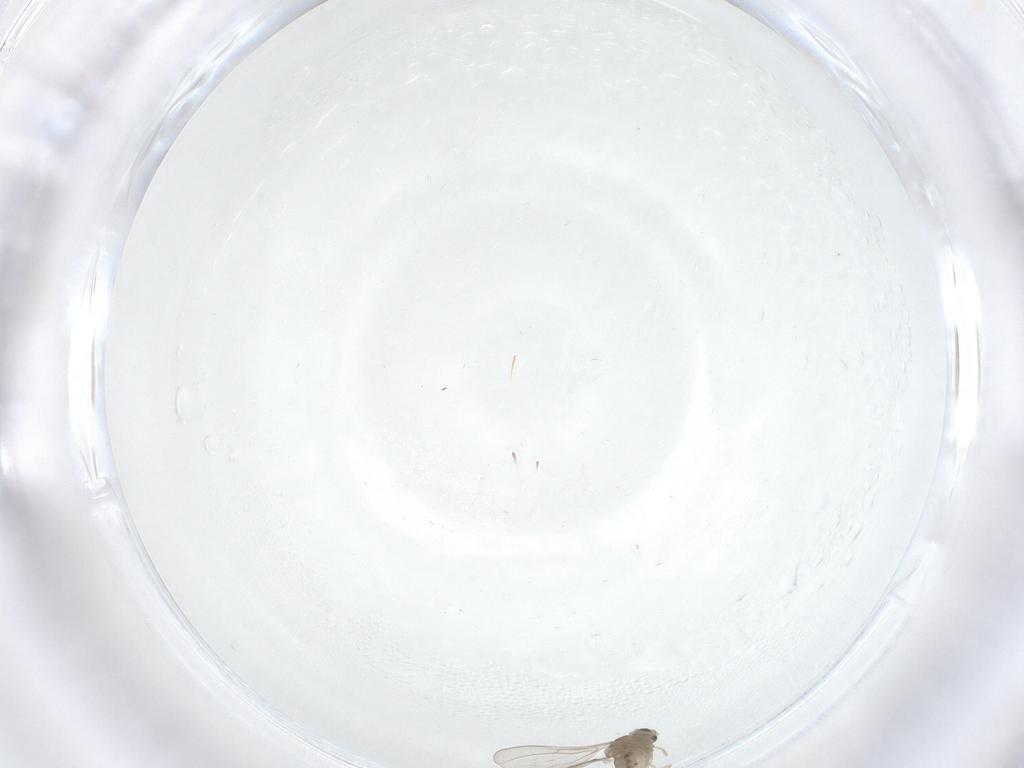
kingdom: Animalia
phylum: Arthropoda
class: Insecta
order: Diptera
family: Cecidomyiidae
